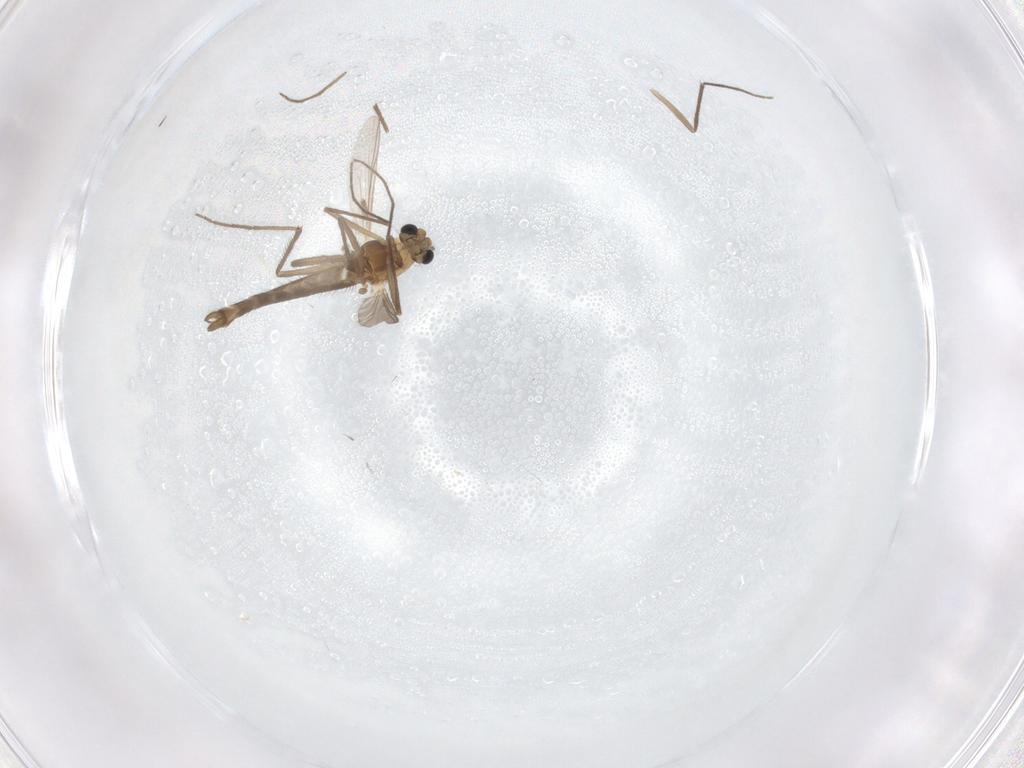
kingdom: Animalia
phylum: Arthropoda
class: Insecta
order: Diptera
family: Chironomidae
